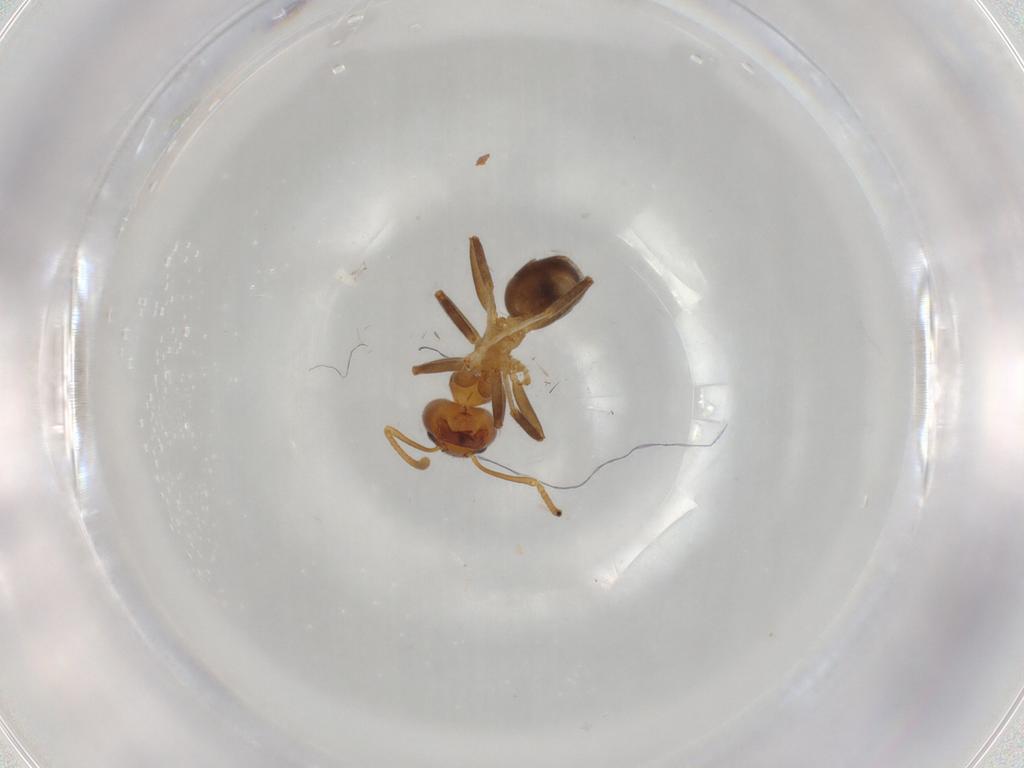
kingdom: Animalia
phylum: Arthropoda
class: Insecta
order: Hymenoptera
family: Formicidae
